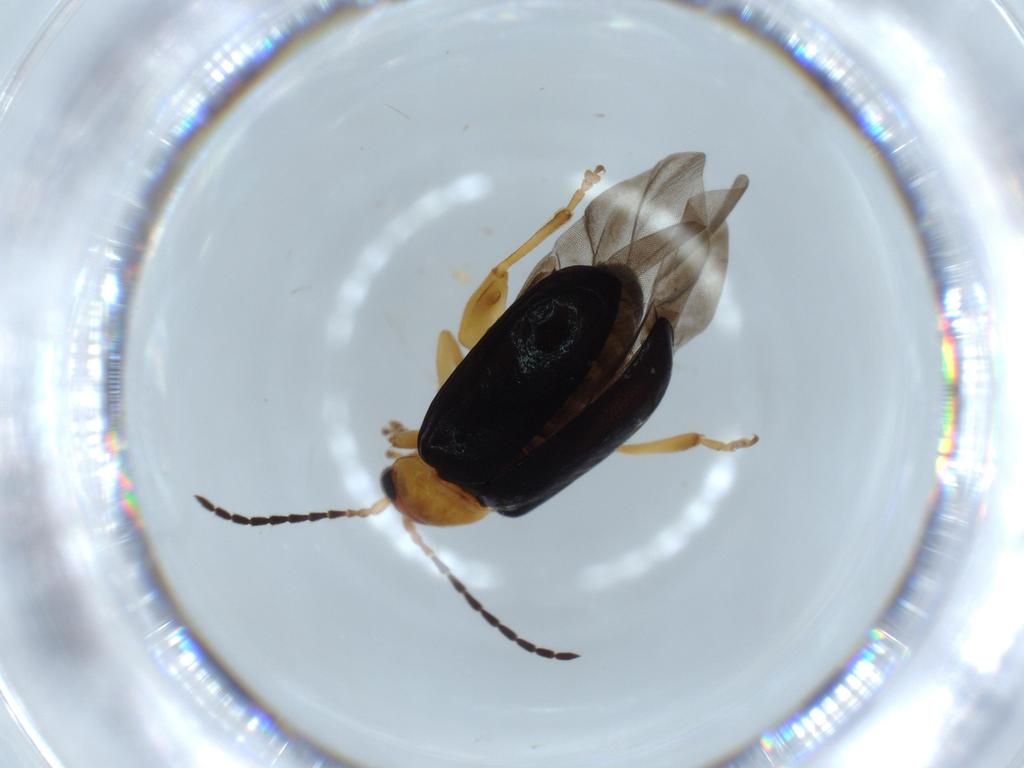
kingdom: Animalia
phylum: Arthropoda
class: Insecta
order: Coleoptera
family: Chrysomelidae
